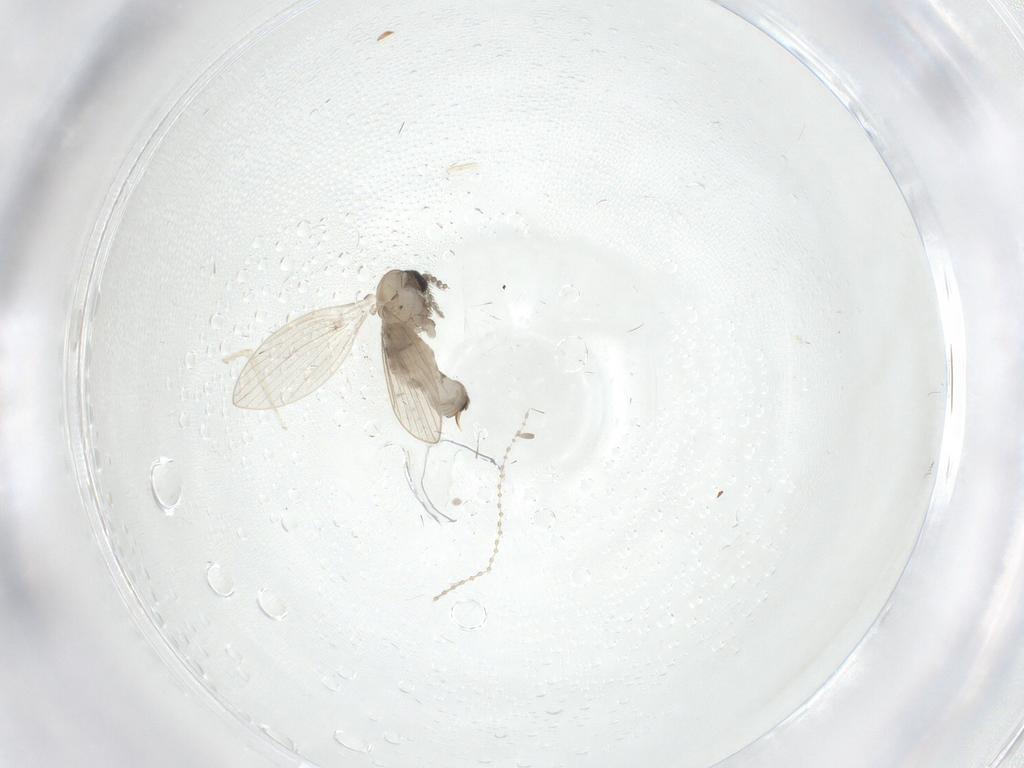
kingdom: Animalia
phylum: Arthropoda
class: Insecta
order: Diptera
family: Psychodidae
